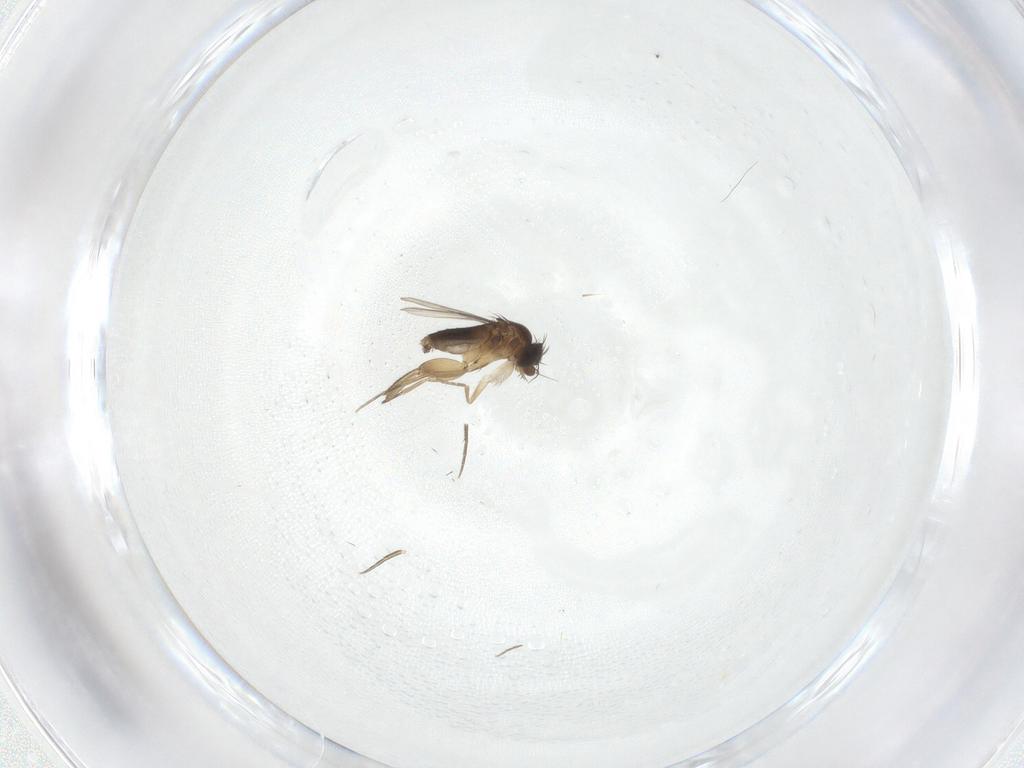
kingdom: Animalia
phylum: Arthropoda
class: Insecta
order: Diptera
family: Phoridae
